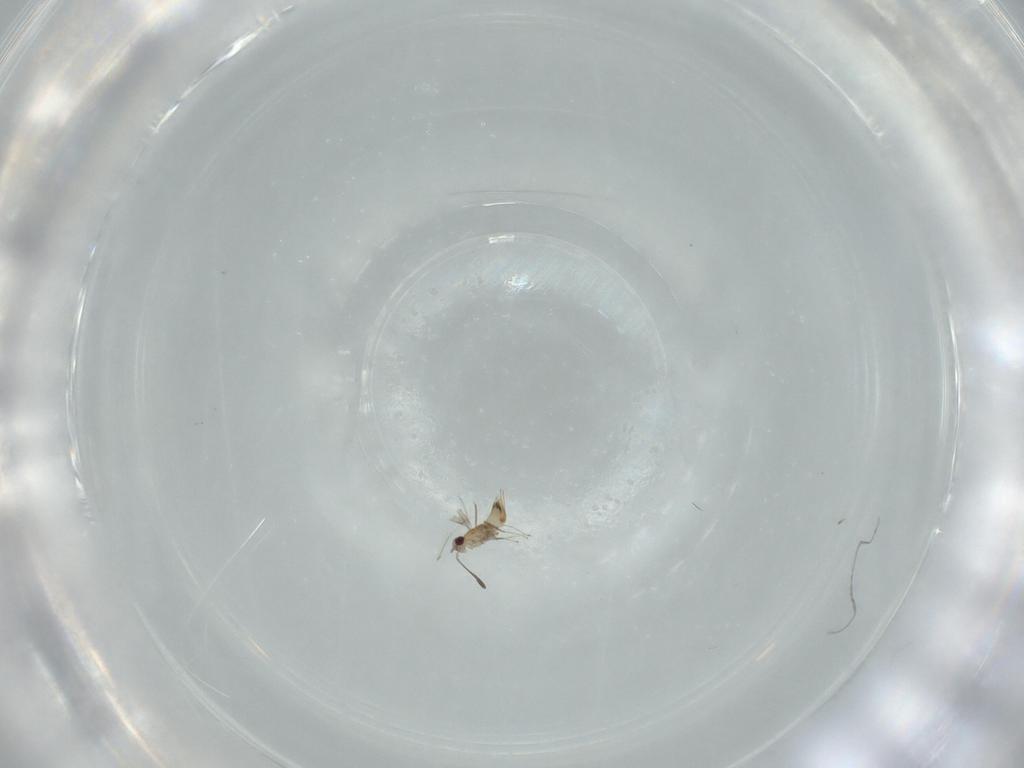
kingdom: Animalia
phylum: Arthropoda
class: Insecta
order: Hymenoptera
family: Mymaridae
